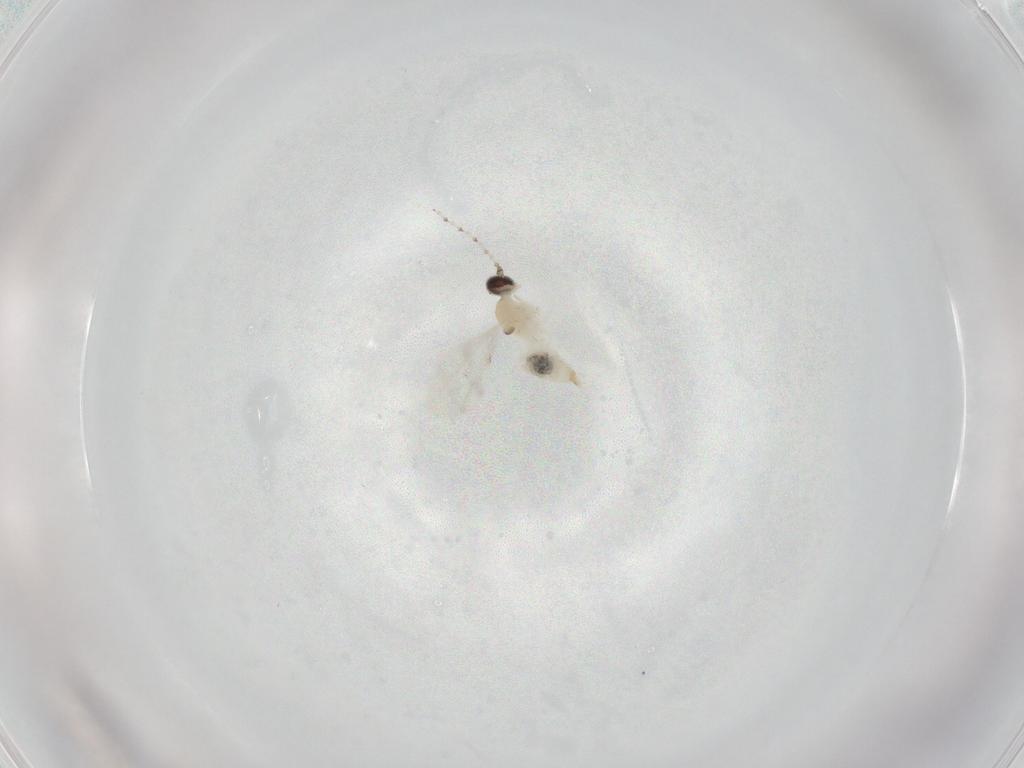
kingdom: Animalia
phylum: Arthropoda
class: Insecta
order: Diptera
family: Cecidomyiidae
